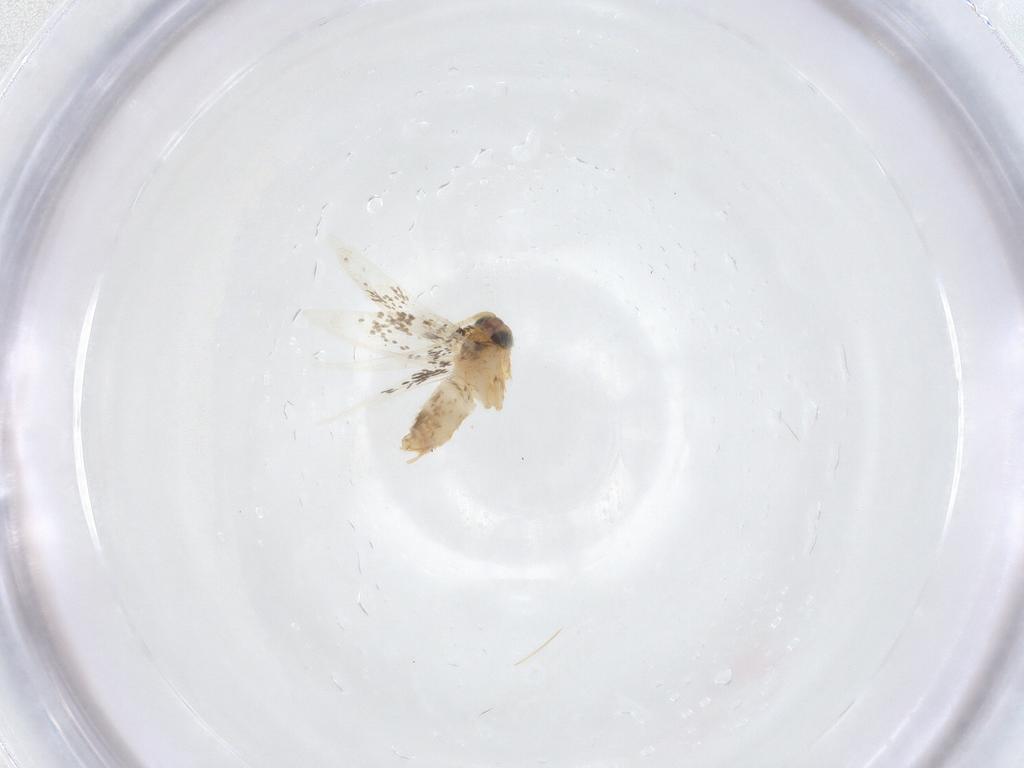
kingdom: Animalia
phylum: Arthropoda
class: Insecta
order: Lepidoptera
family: Nepticulidae
